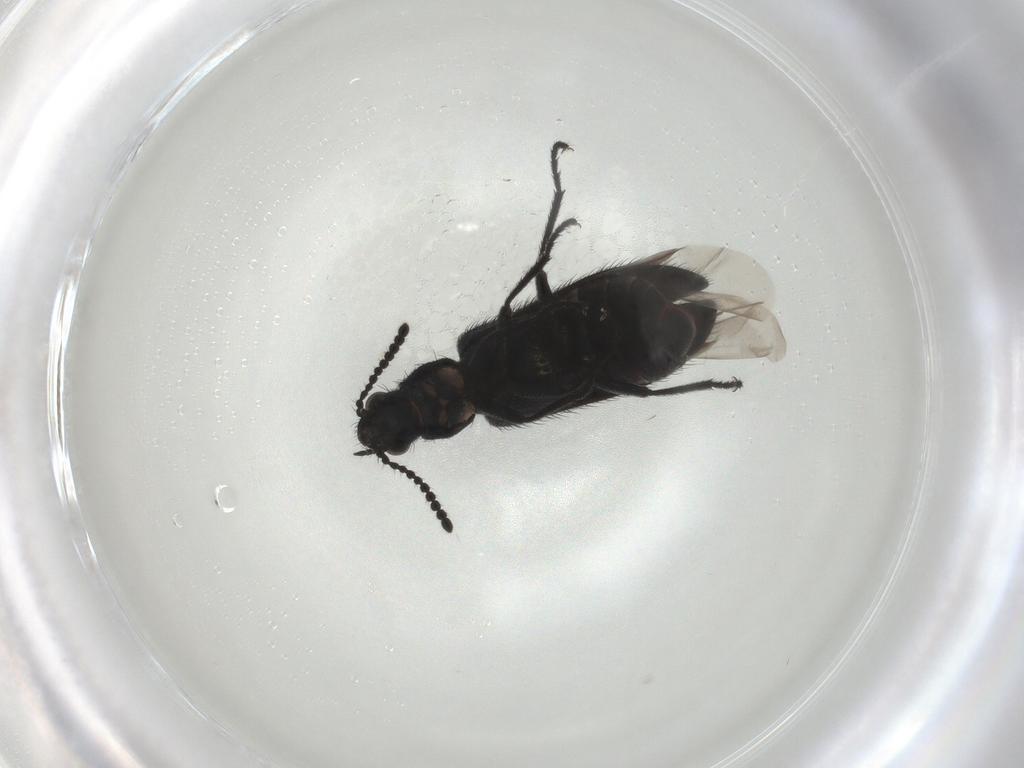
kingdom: Animalia
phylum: Arthropoda
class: Insecta
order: Coleoptera
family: Melyridae
